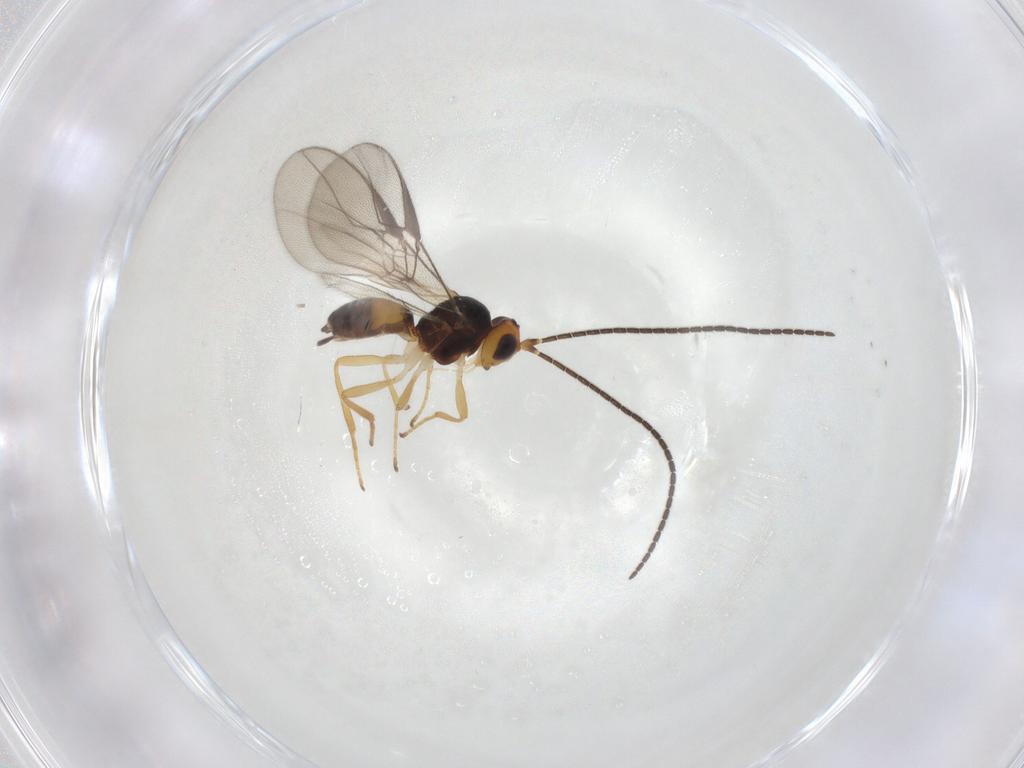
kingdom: Animalia
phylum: Arthropoda
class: Insecta
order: Hymenoptera
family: Braconidae
